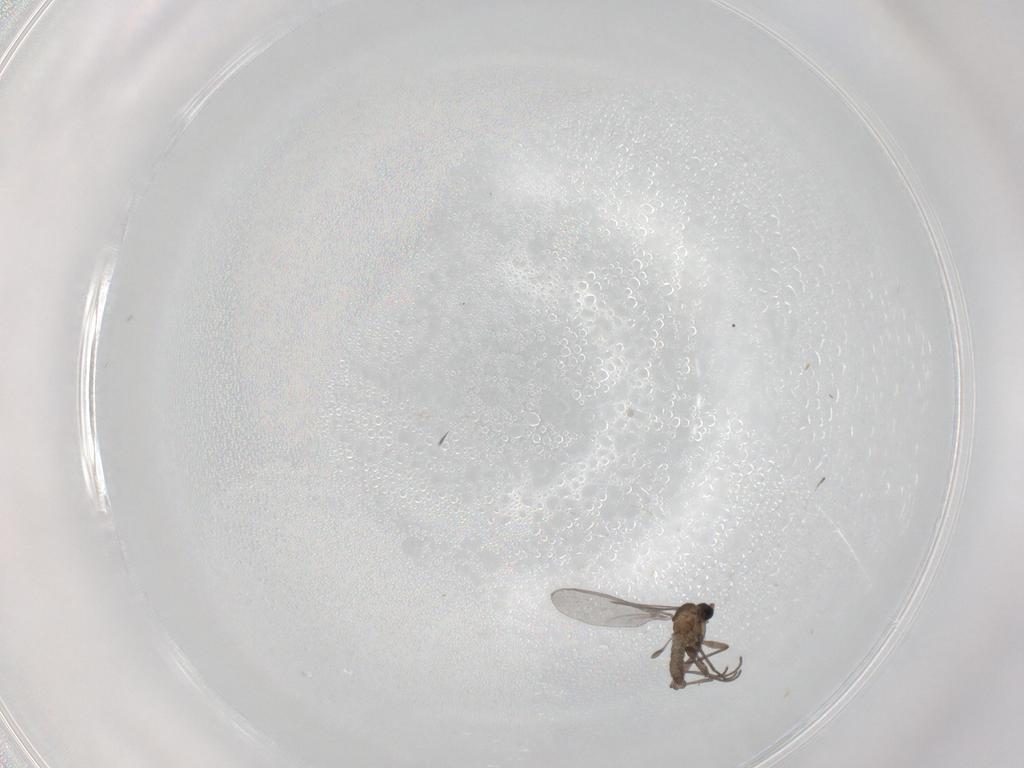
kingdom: Animalia
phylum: Arthropoda
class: Insecta
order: Diptera
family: Sciaridae
